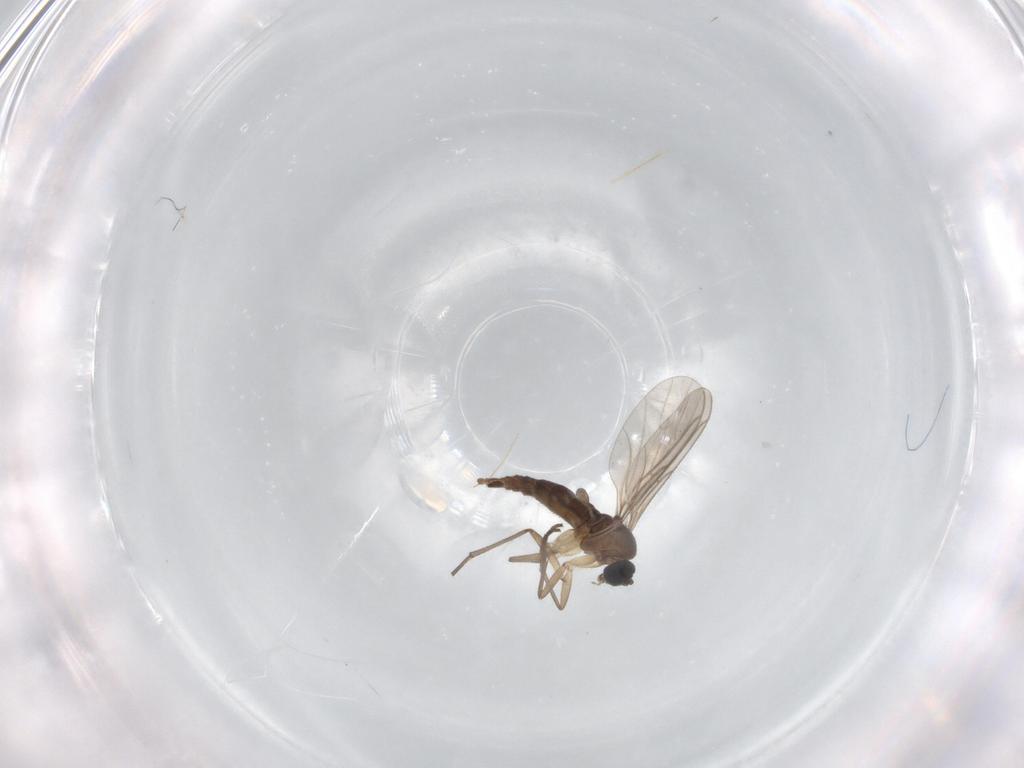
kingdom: Animalia
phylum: Arthropoda
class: Insecta
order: Diptera
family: Sciaridae
